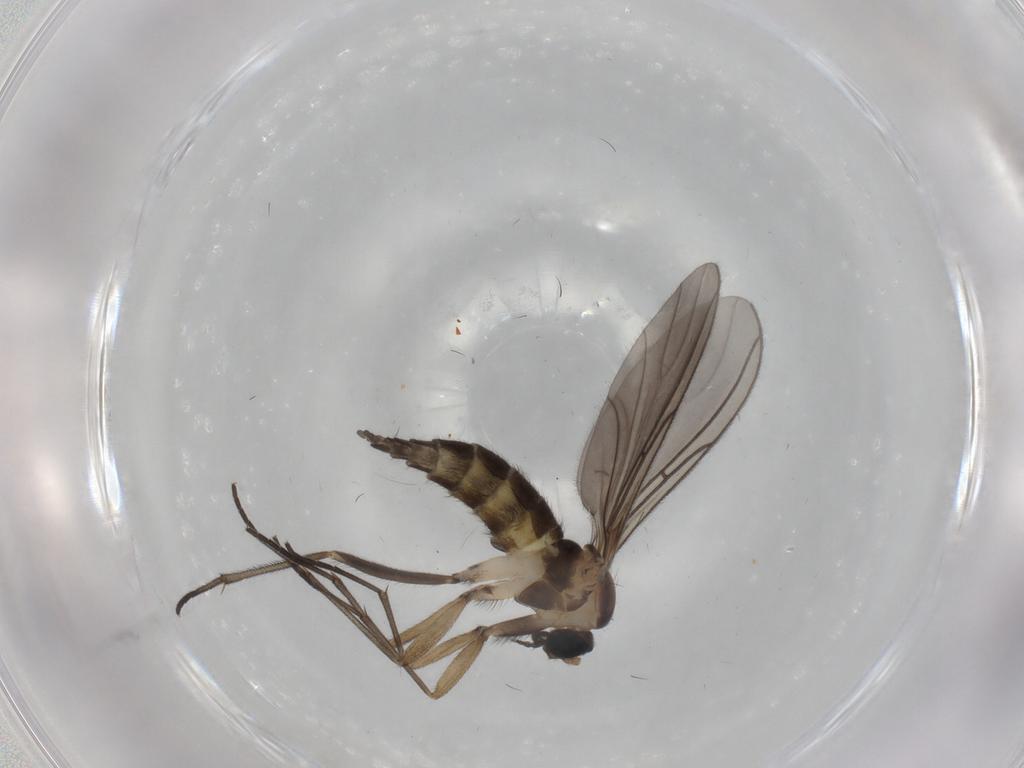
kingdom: Animalia
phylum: Arthropoda
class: Insecta
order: Diptera
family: Sciaridae
